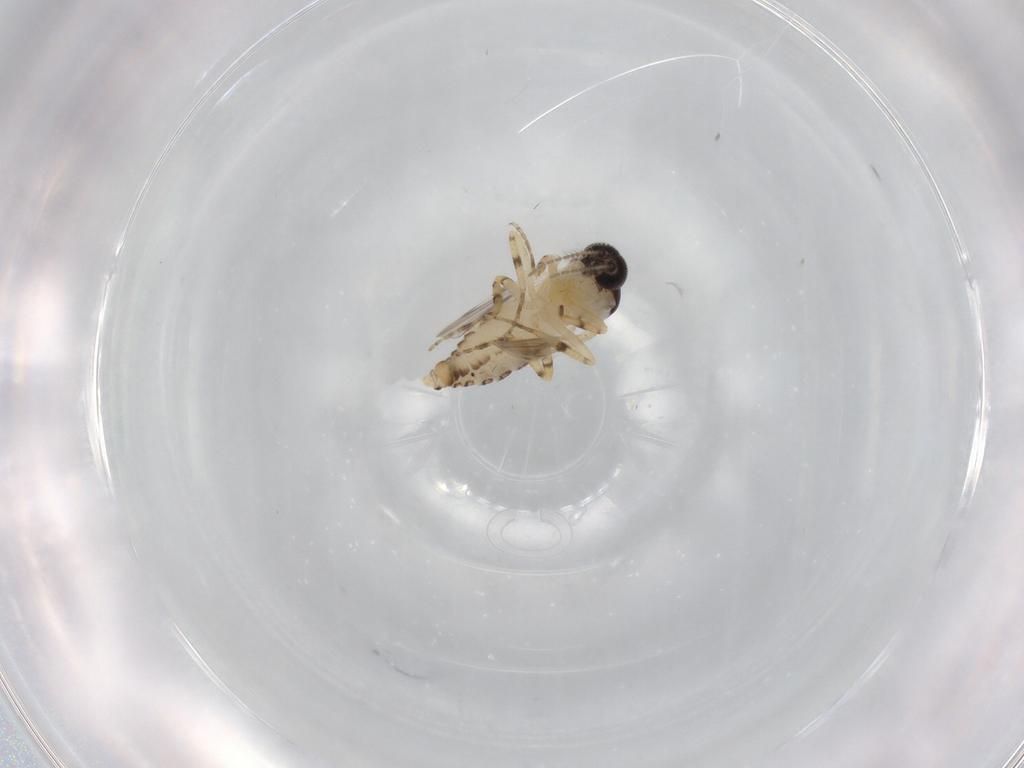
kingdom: Animalia
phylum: Arthropoda
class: Insecta
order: Diptera
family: Ceratopogonidae
